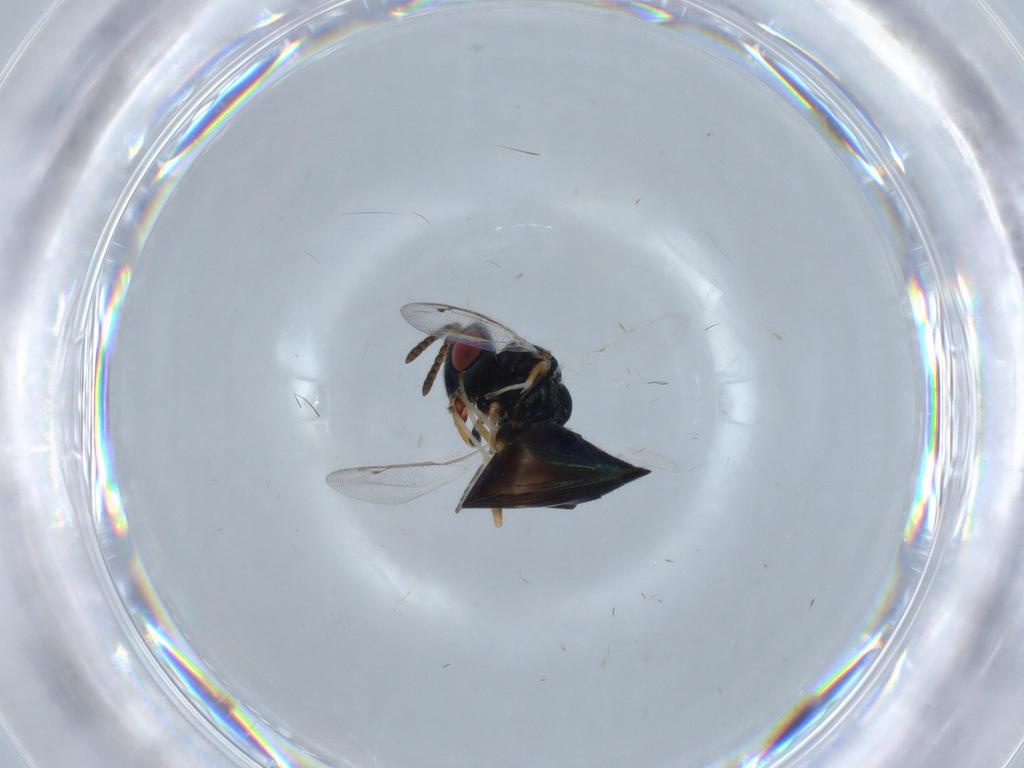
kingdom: Animalia
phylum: Arthropoda
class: Insecta
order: Hymenoptera
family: Pteromalidae
